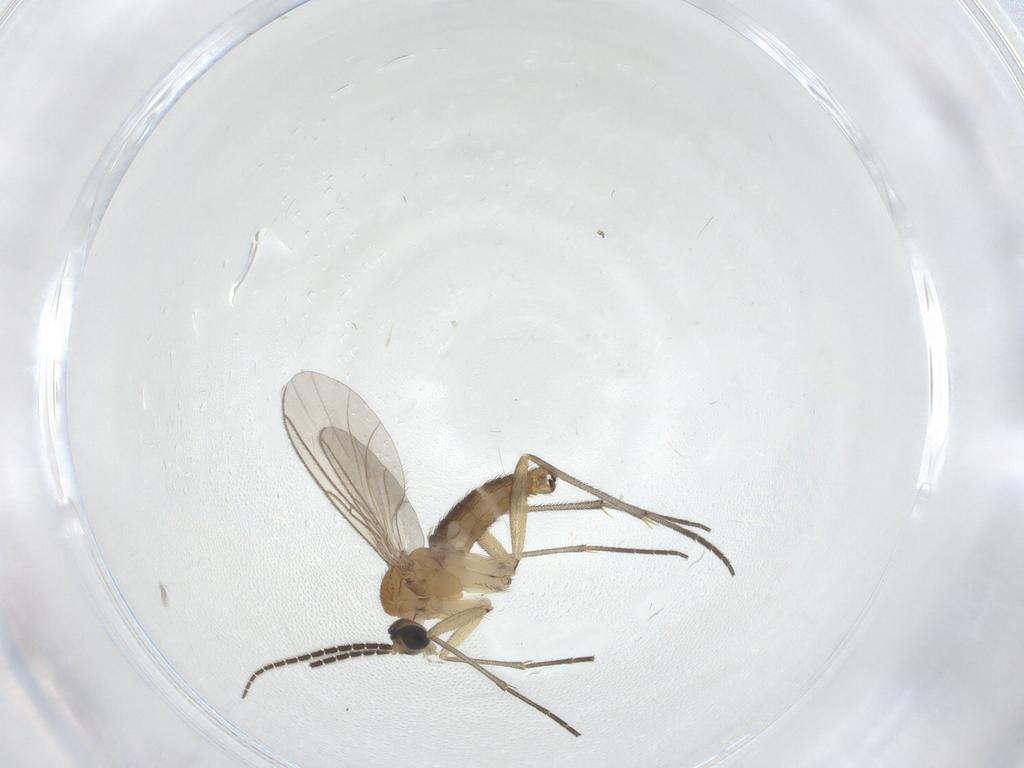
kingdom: Animalia
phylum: Arthropoda
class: Insecta
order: Diptera
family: Sciaridae
